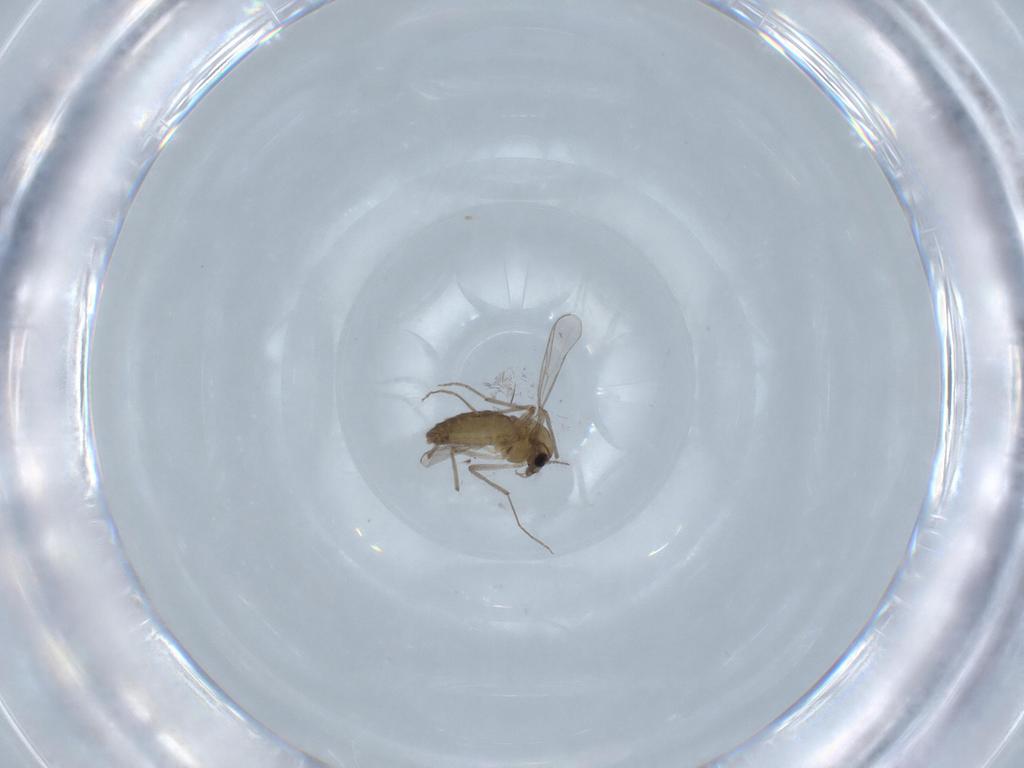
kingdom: Animalia
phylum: Arthropoda
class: Insecta
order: Diptera
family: Chironomidae
